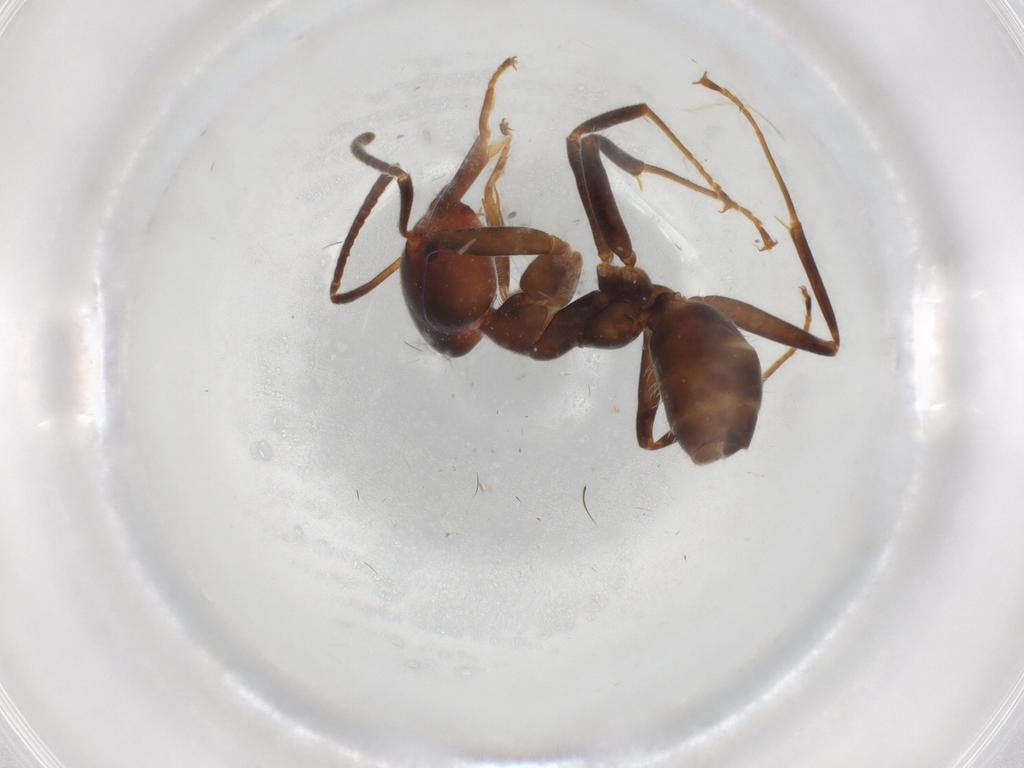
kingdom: Animalia
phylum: Arthropoda
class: Insecta
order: Hymenoptera
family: Formicidae
